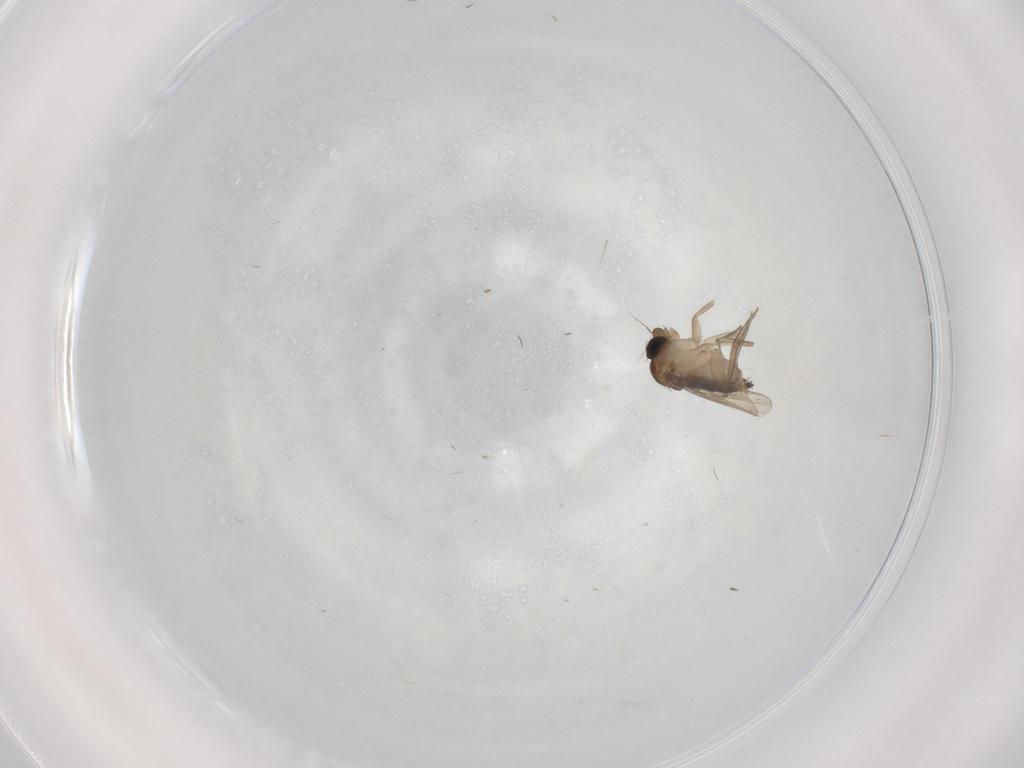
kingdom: Animalia
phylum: Arthropoda
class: Insecta
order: Diptera
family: Phoridae
